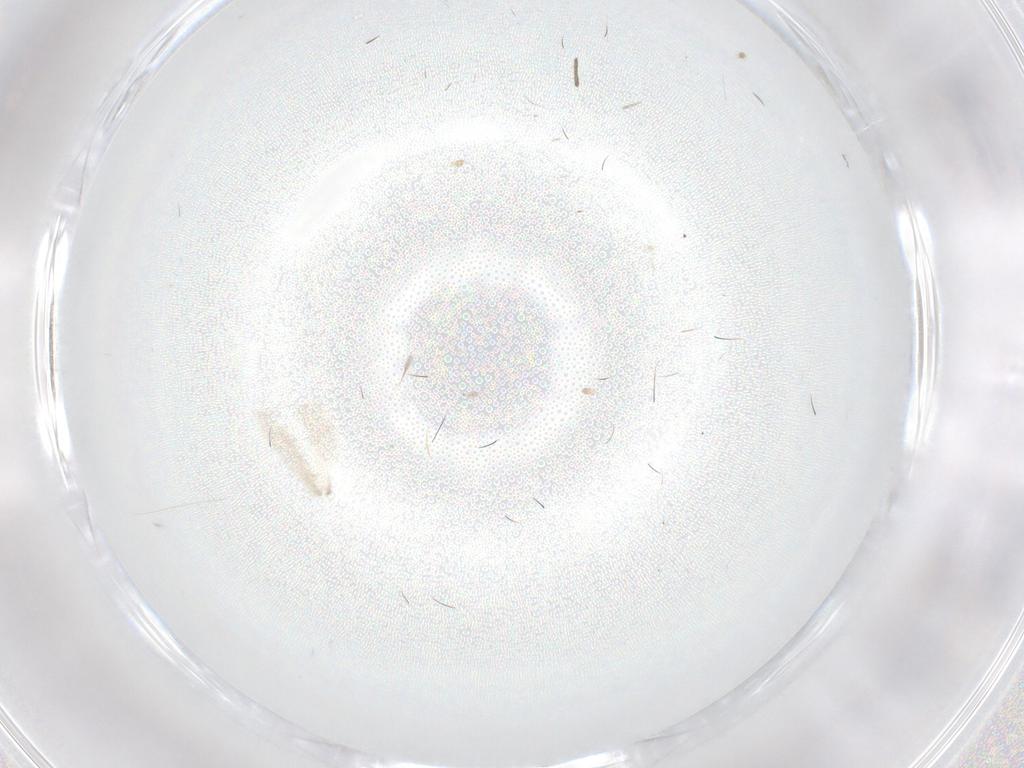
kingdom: Animalia
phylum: Arthropoda
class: Insecta
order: Diptera
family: Sciaridae
